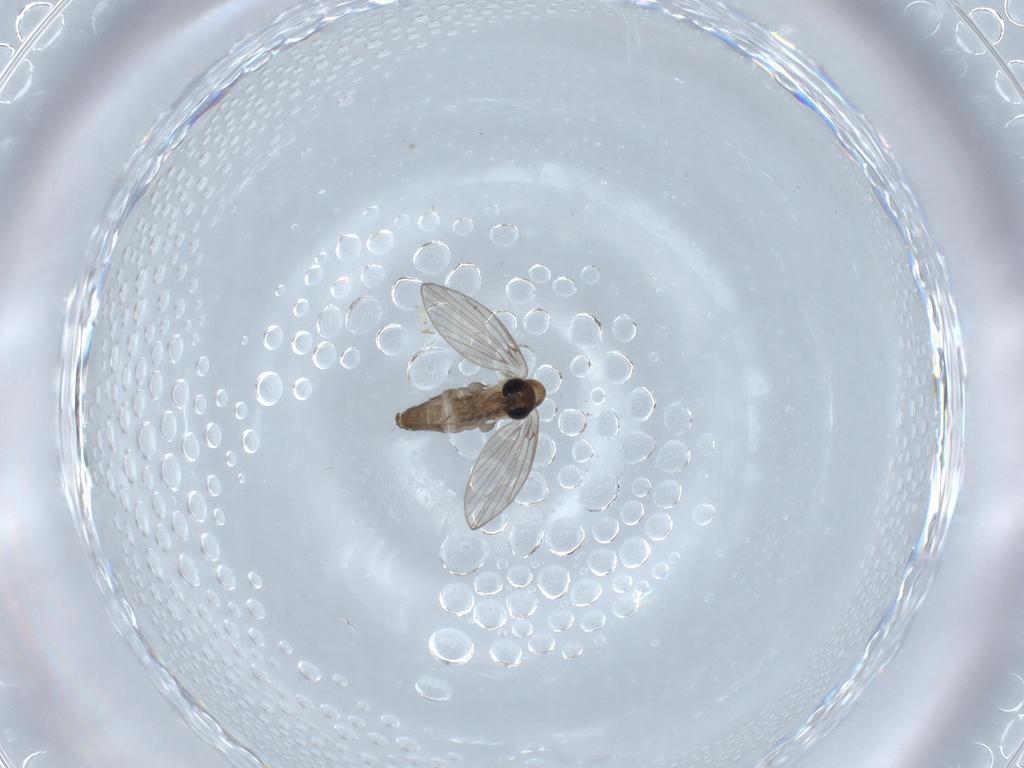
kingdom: Animalia
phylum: Arthropoda
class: Insecta
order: Diptera
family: Psychodidae
